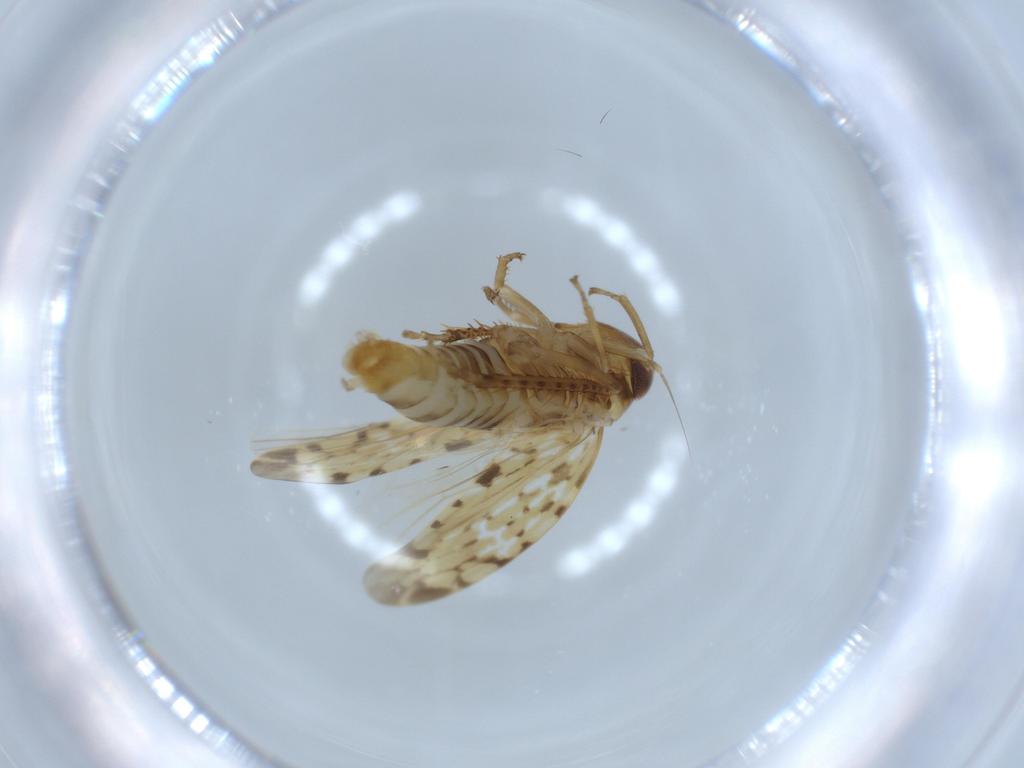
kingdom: Animalia
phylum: Arthropoda
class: Insecta
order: Hemiptera
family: Cicadellidae
